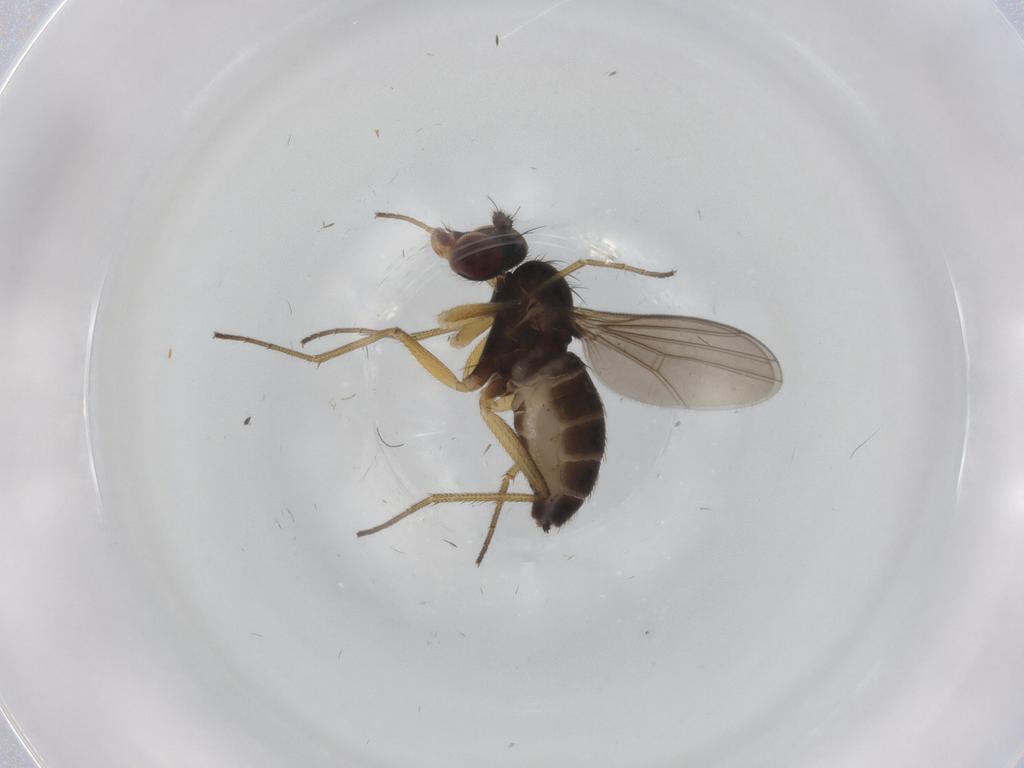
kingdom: Animalia
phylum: Arthropoda
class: Insecta
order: Diptera
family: Dolichopodidae
